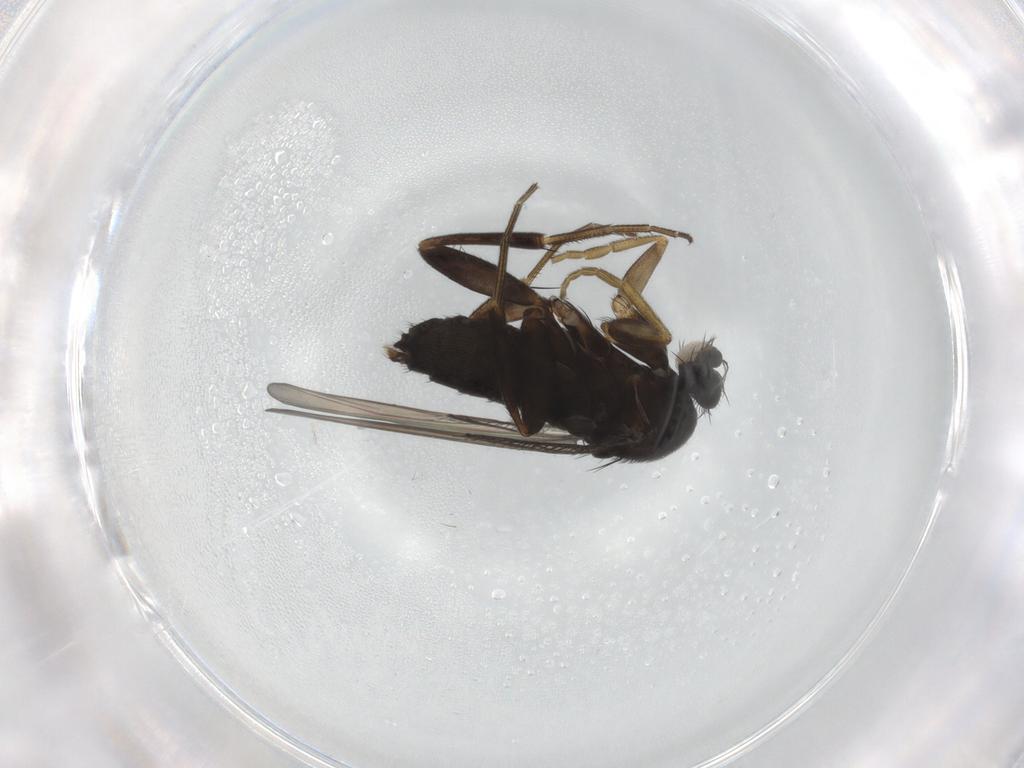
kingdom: Animalia
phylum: Arthropoda
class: Insecta
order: Diptera
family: Phoridae
